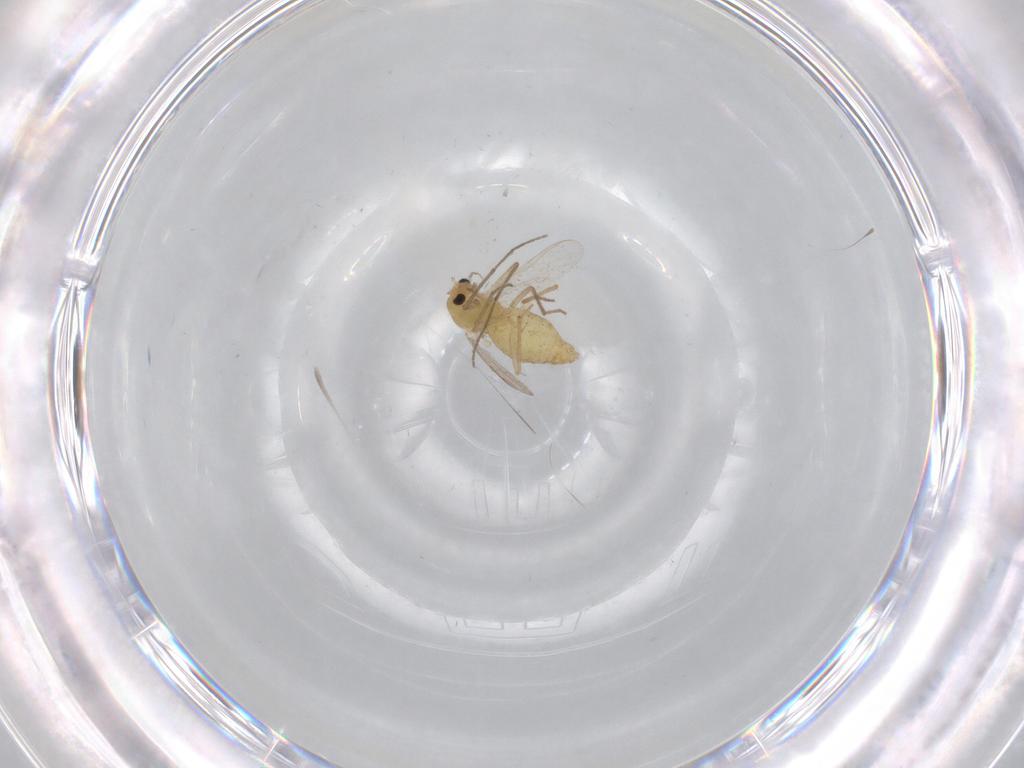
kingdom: Animalia
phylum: Arthropoda
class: Insecta
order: Diptera
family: Chironomidae
